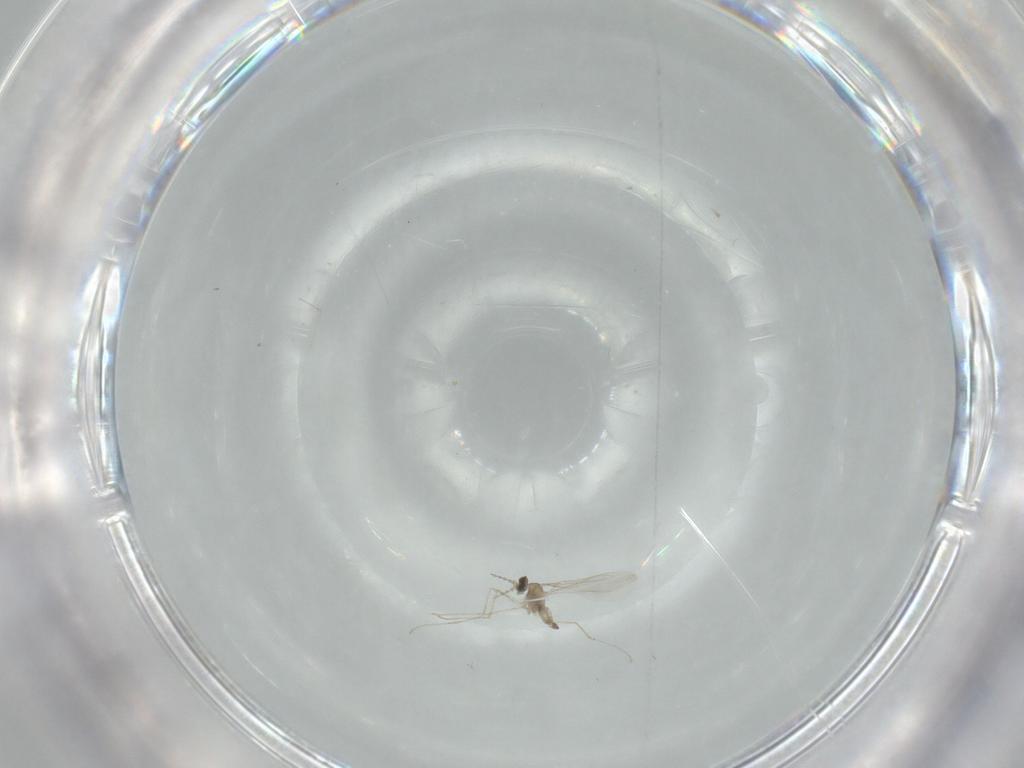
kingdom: Animalia
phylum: Arthropoda
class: Insecta
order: Diptera
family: Cecidomyiidae
